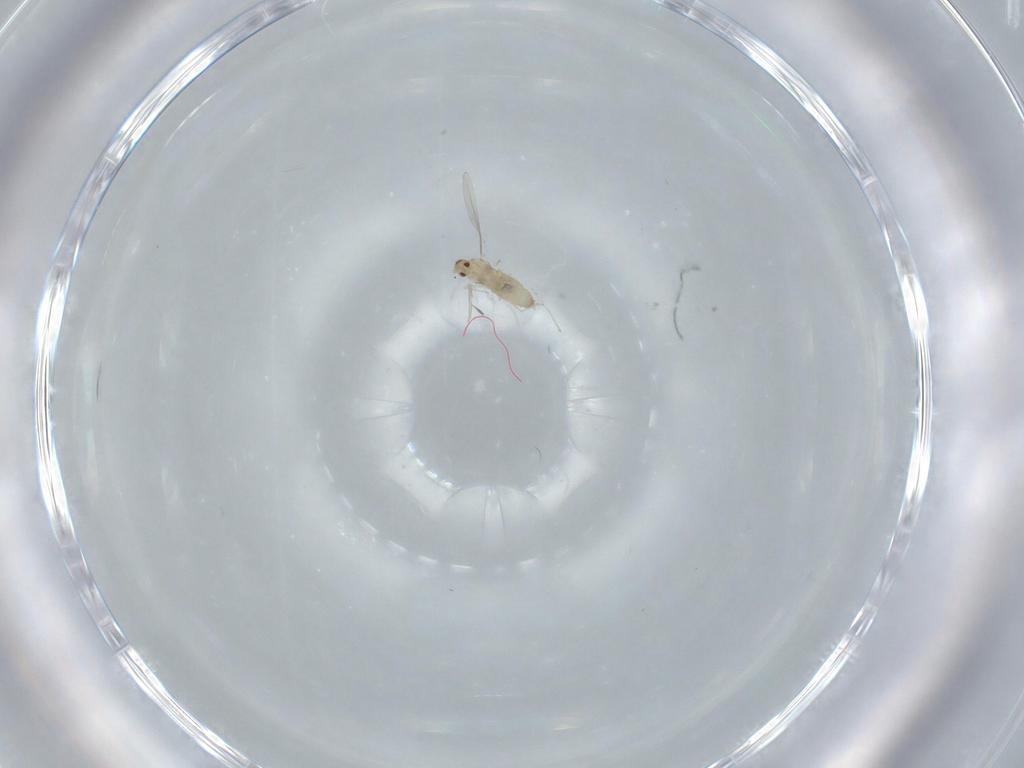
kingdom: Animalia
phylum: Arthropoda
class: Insecta
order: Diptera
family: Cecidomyiidae
